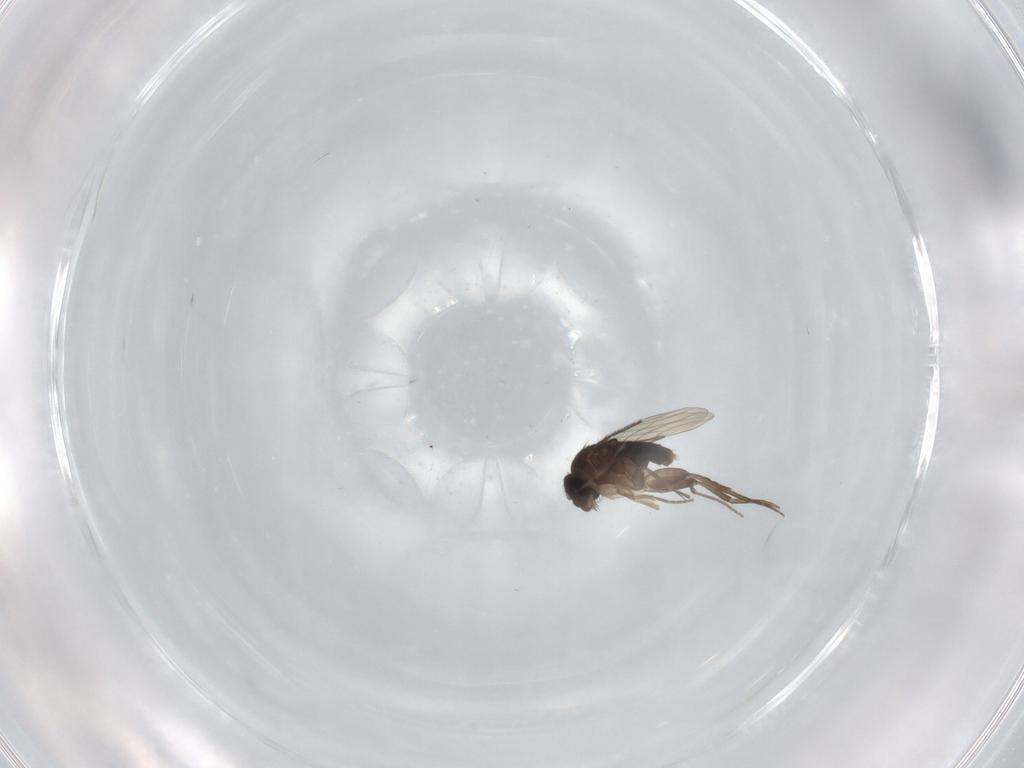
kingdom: Animalia
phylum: Arthropoda
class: Insecta
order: Diptera
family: Phoridae
